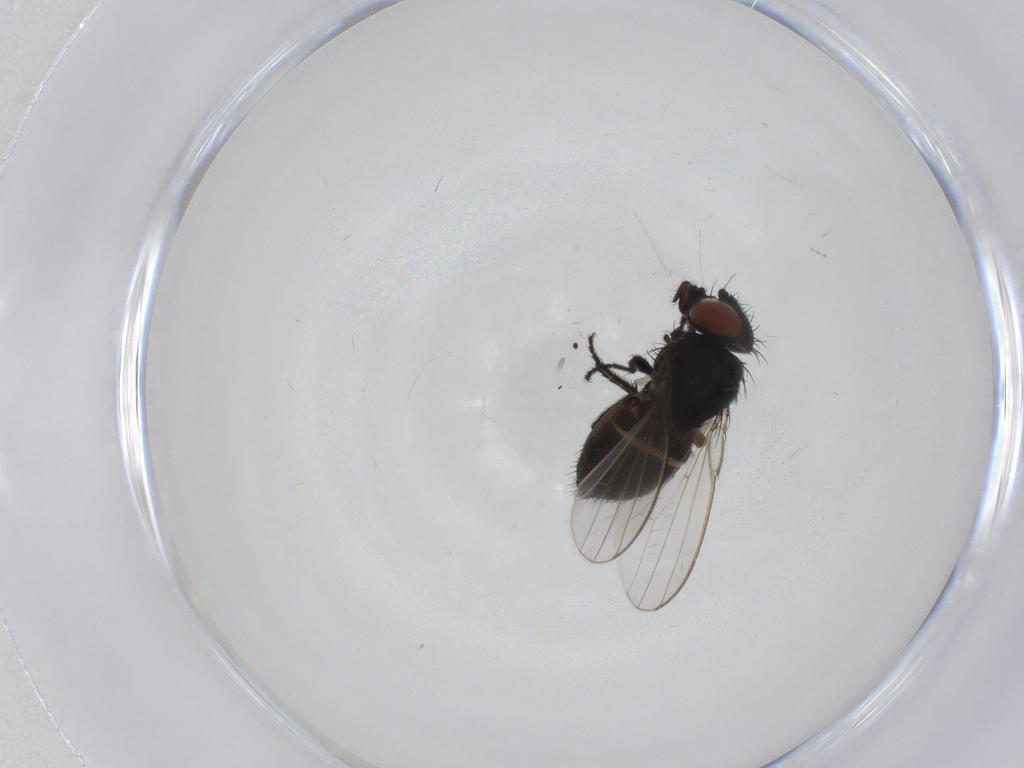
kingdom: Animalia
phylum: Arthropoda
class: Insecta
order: Diptera
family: Milichiidae
